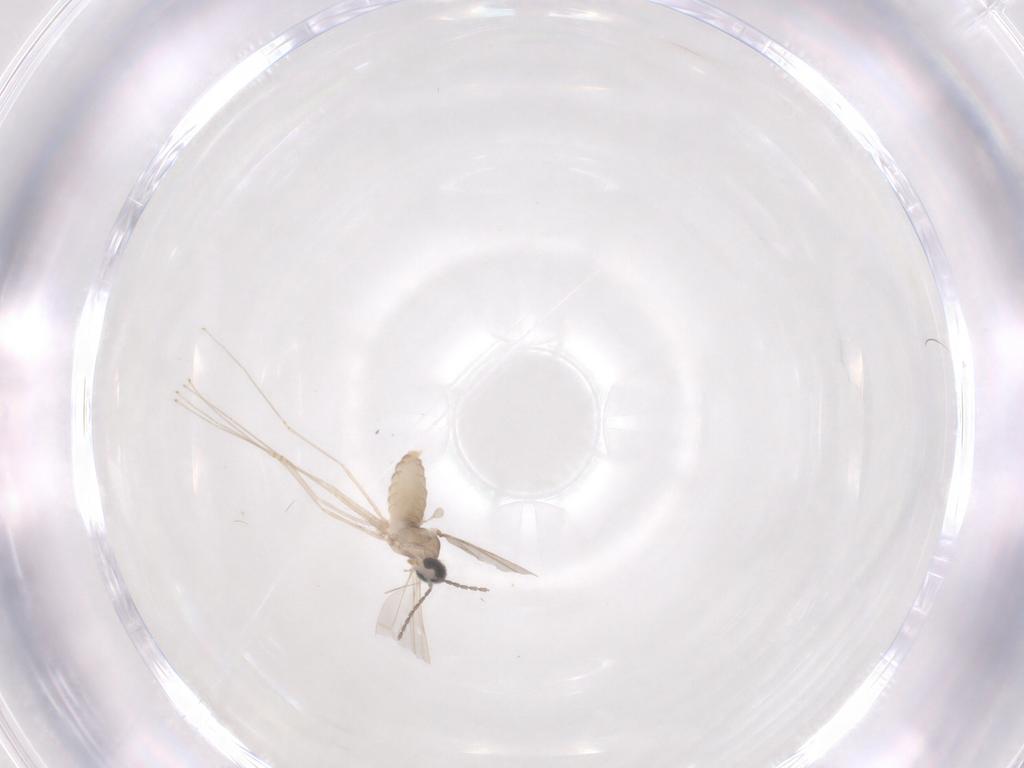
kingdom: Animalia
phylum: Arthropoda
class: Insecta
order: Diptera
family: Cecidomyiidae
